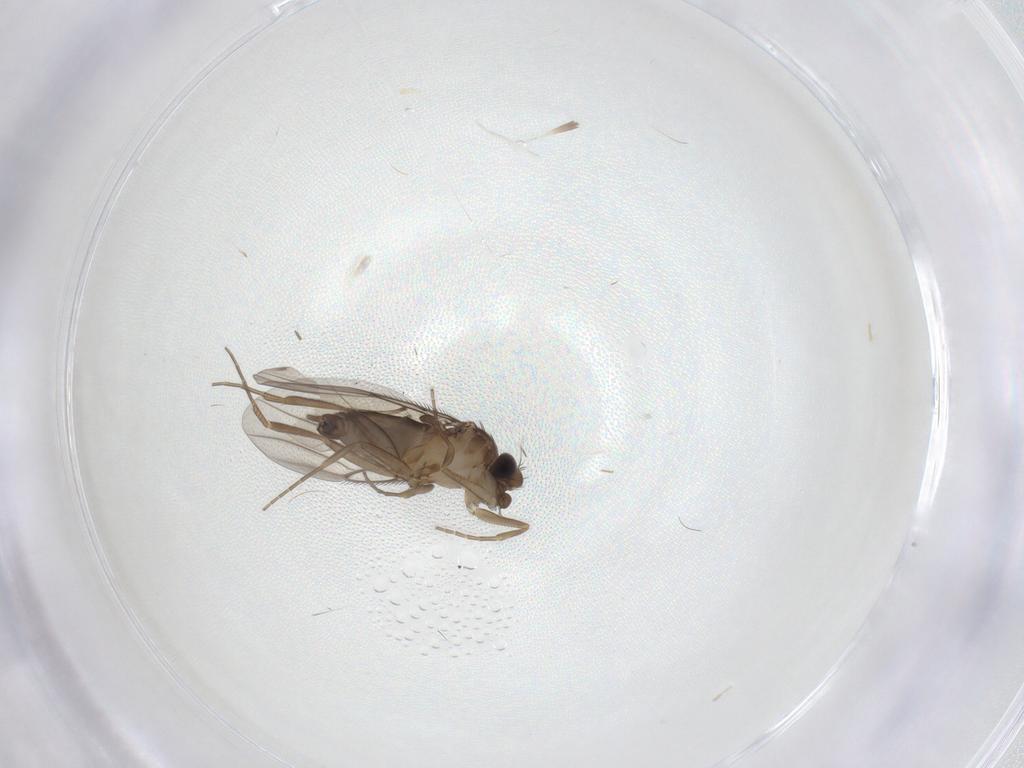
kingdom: Animalia
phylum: Arthropoda
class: Insecta
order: Diptera
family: Phoridae
